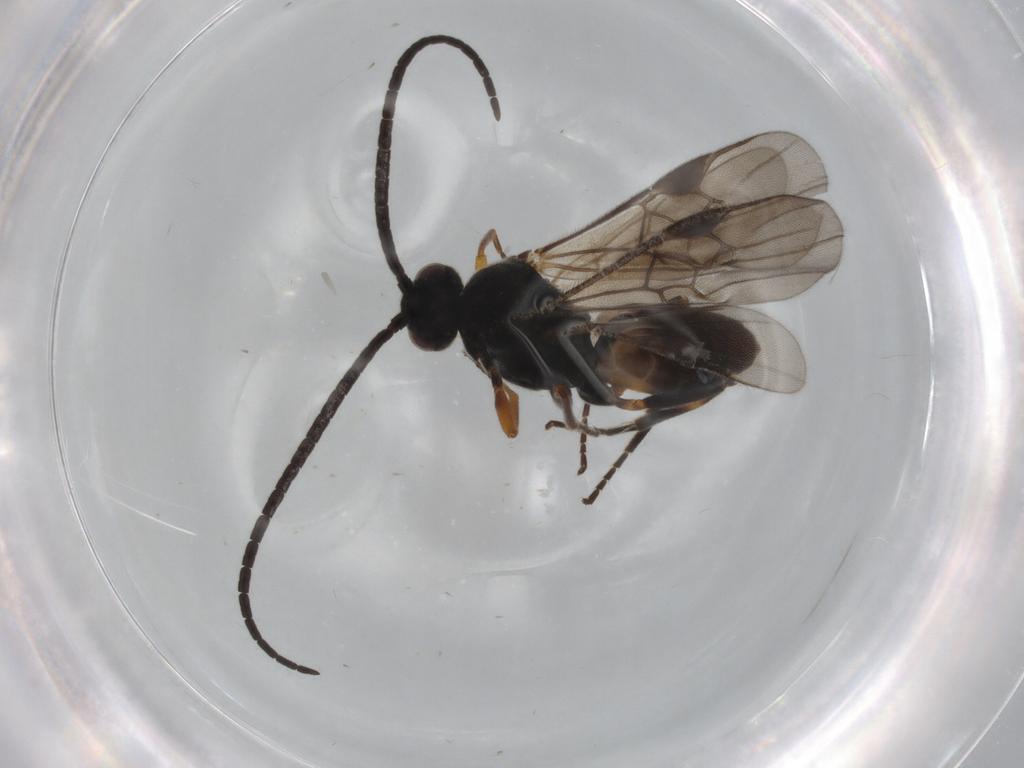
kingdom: Animalia
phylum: Arthropoda
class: Insecta
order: Hymenoptera
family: Braconidae
